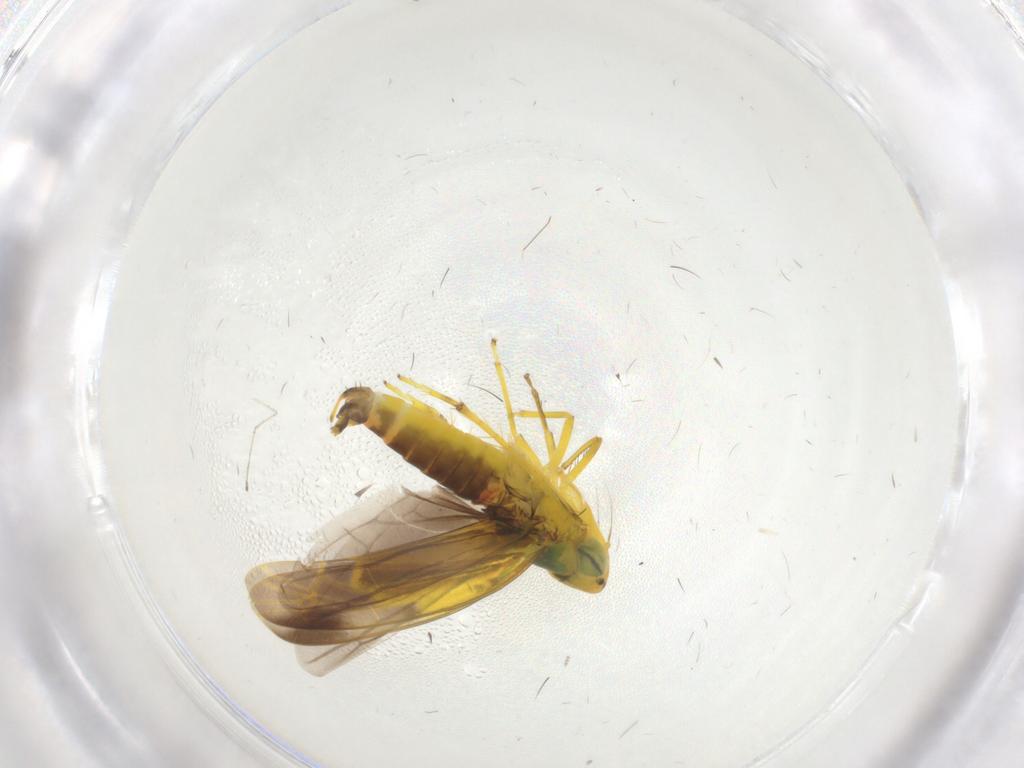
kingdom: Animalia
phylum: Arthropoda
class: Insecta
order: Hemiptera
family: Cicadellidae
